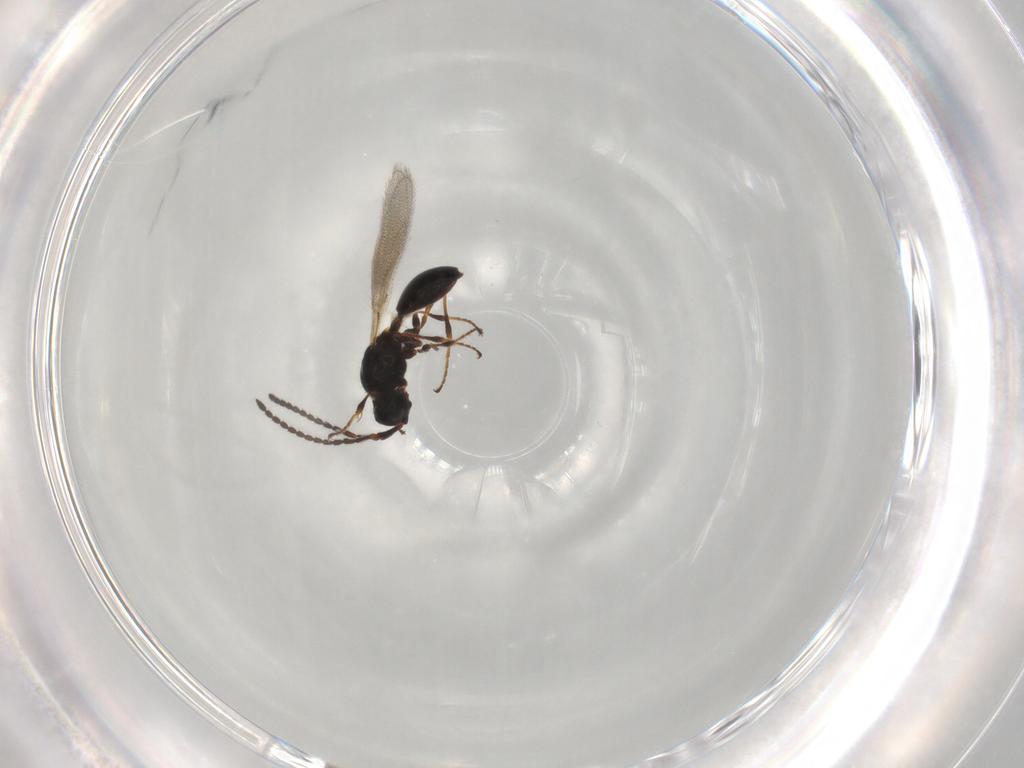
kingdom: Animalia
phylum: Arthropoda
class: Insecta
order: Hymenoptera
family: Diapriidae
